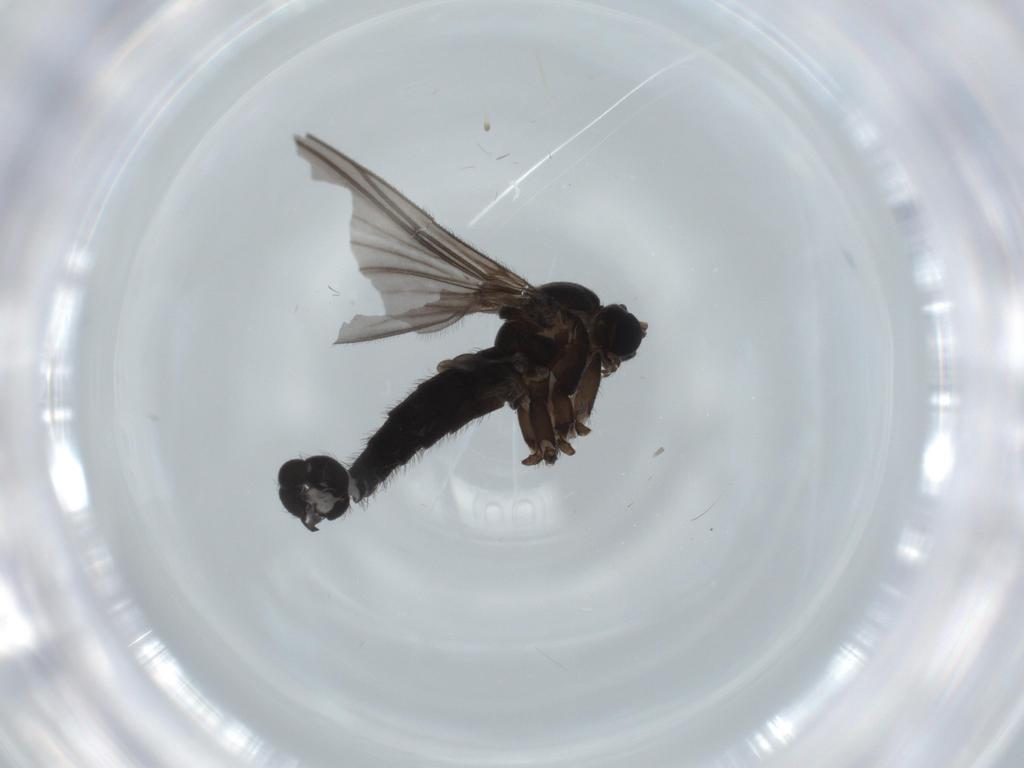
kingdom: Animalia
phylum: Arthropoda
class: Insecta
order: Diptera
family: Sciaridae
